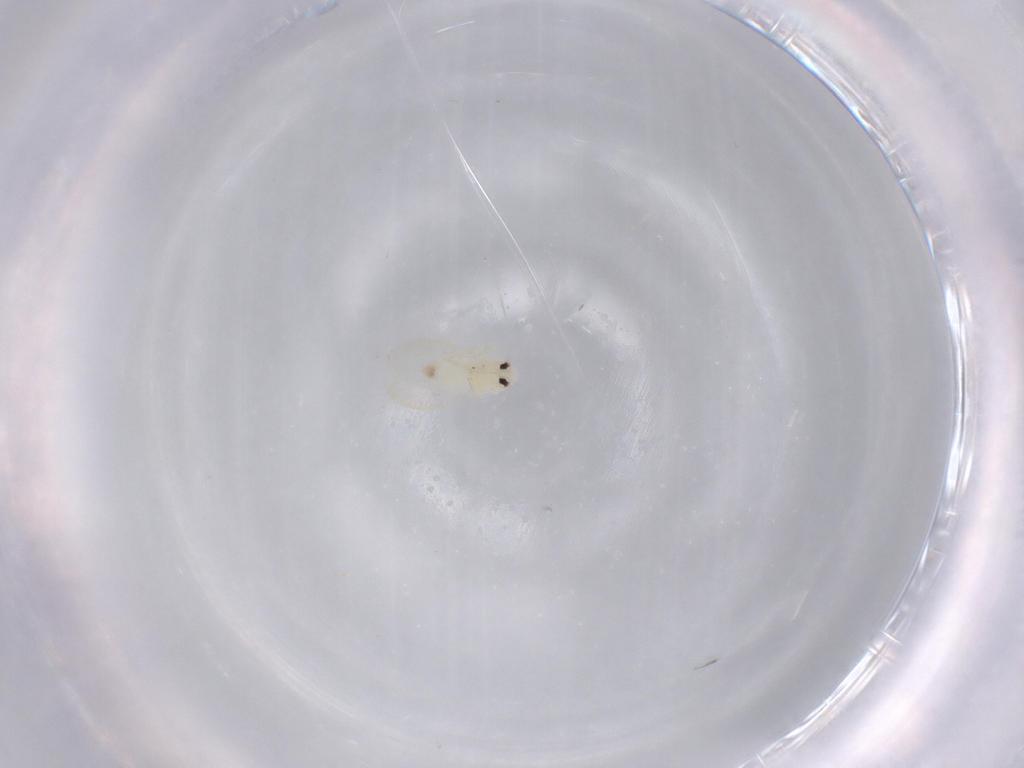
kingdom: Animalia
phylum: Arthropoda
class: Insecta
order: Hemiptera
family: Aleyrodidae
